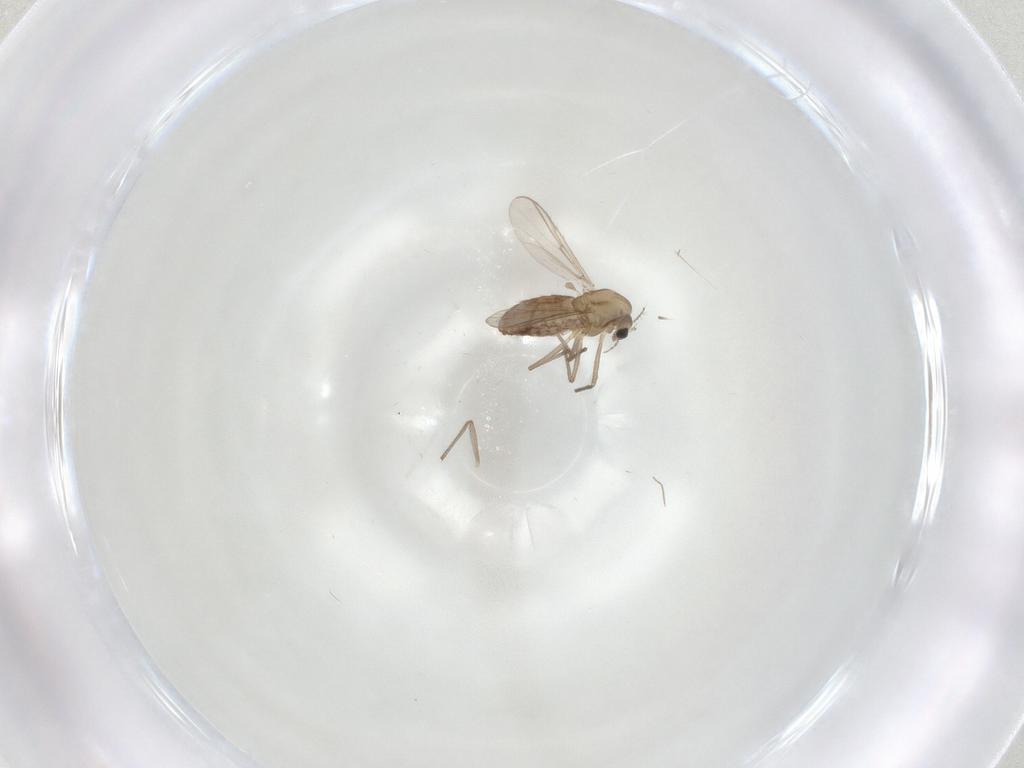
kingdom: Animalia
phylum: Arthropoda
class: Insecta
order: Diptera
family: Chironomidae
